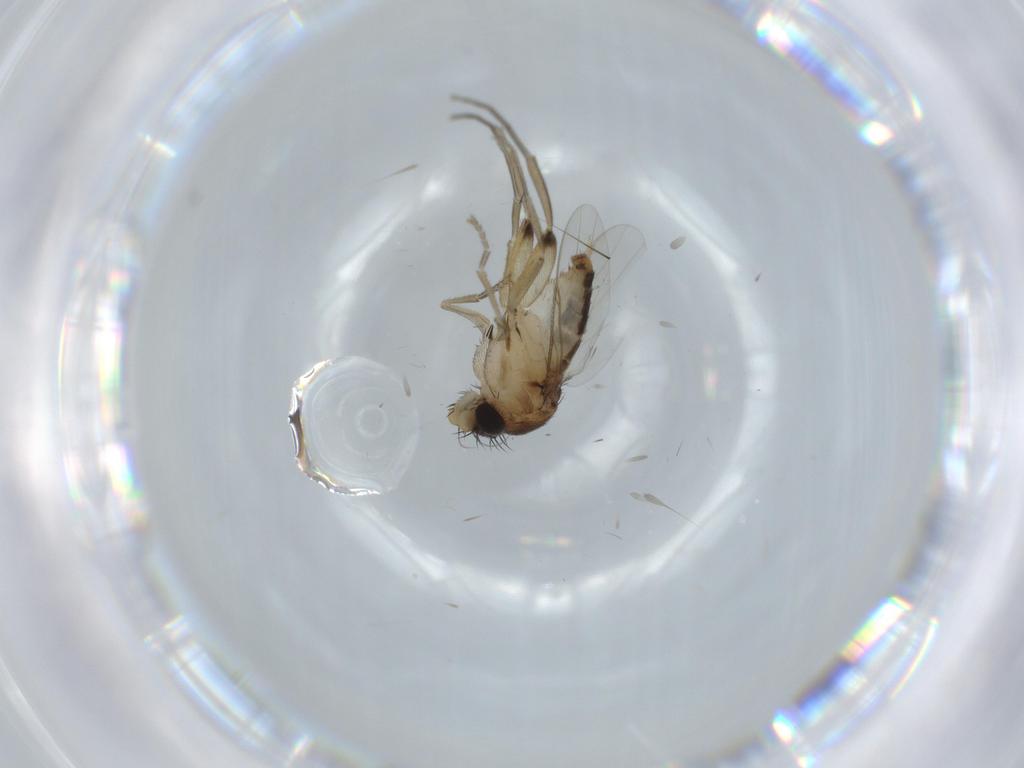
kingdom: Animalia
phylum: Arthropoda
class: Insecta
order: Diptera
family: Phoridae
